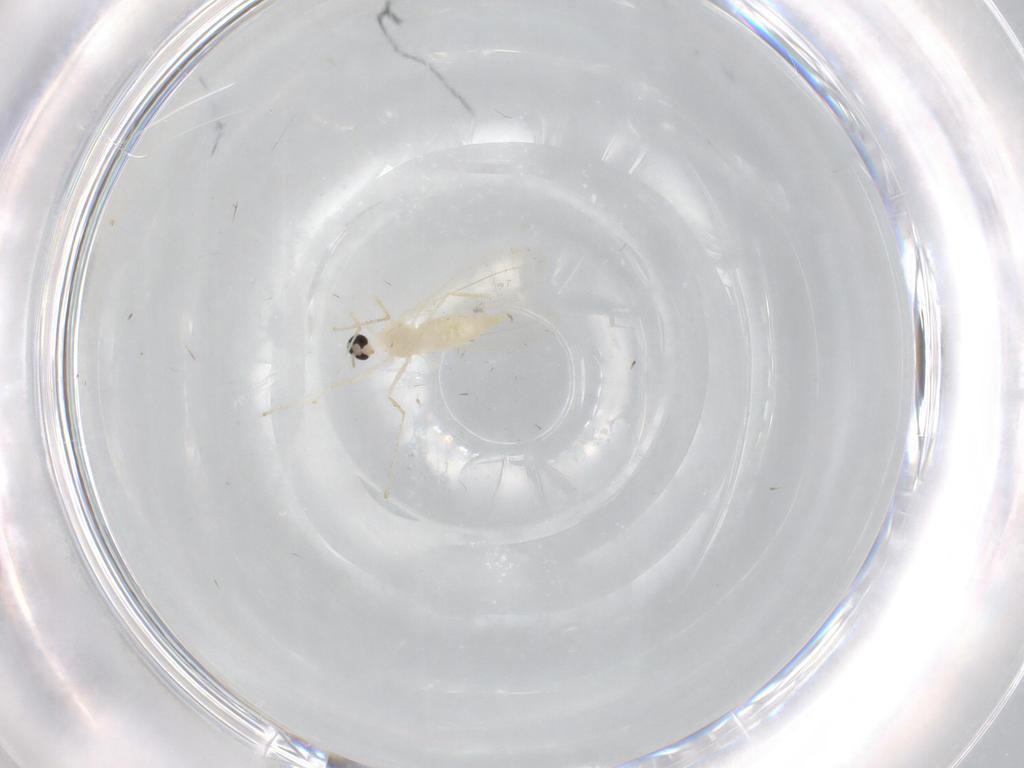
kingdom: Animalia
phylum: Arthropoda
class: Insecta
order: Diptera
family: Cecidomyiidae
